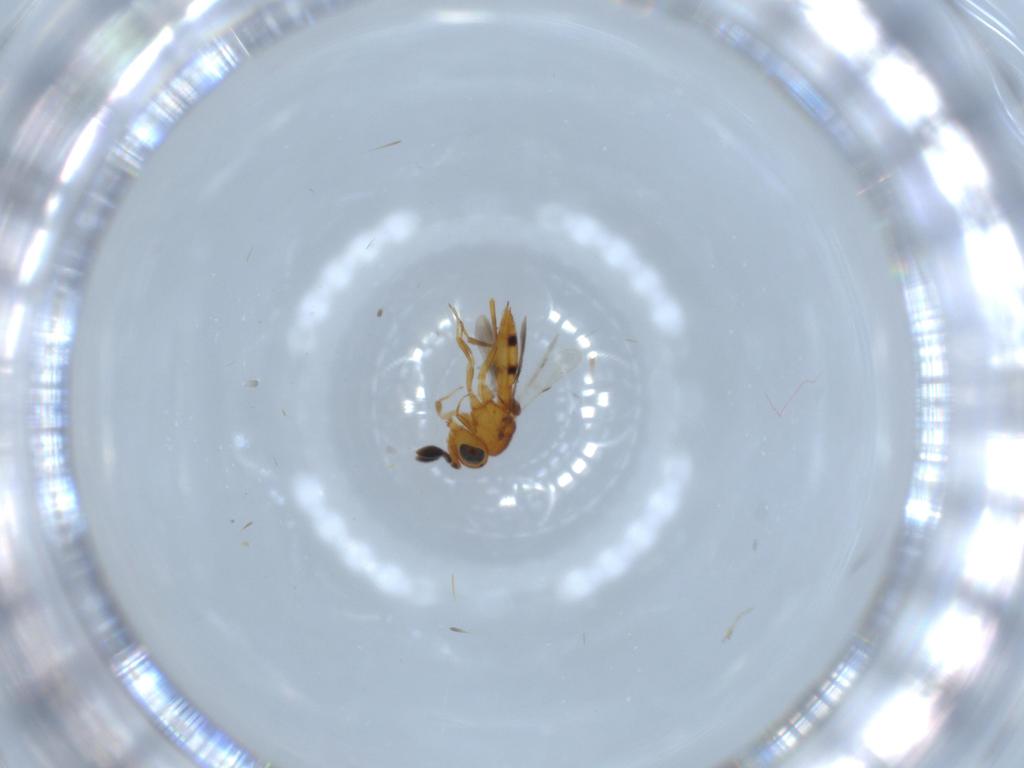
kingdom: Animalia
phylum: Arthropoda
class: Insecta
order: Hymenoptera
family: Scelionidae
